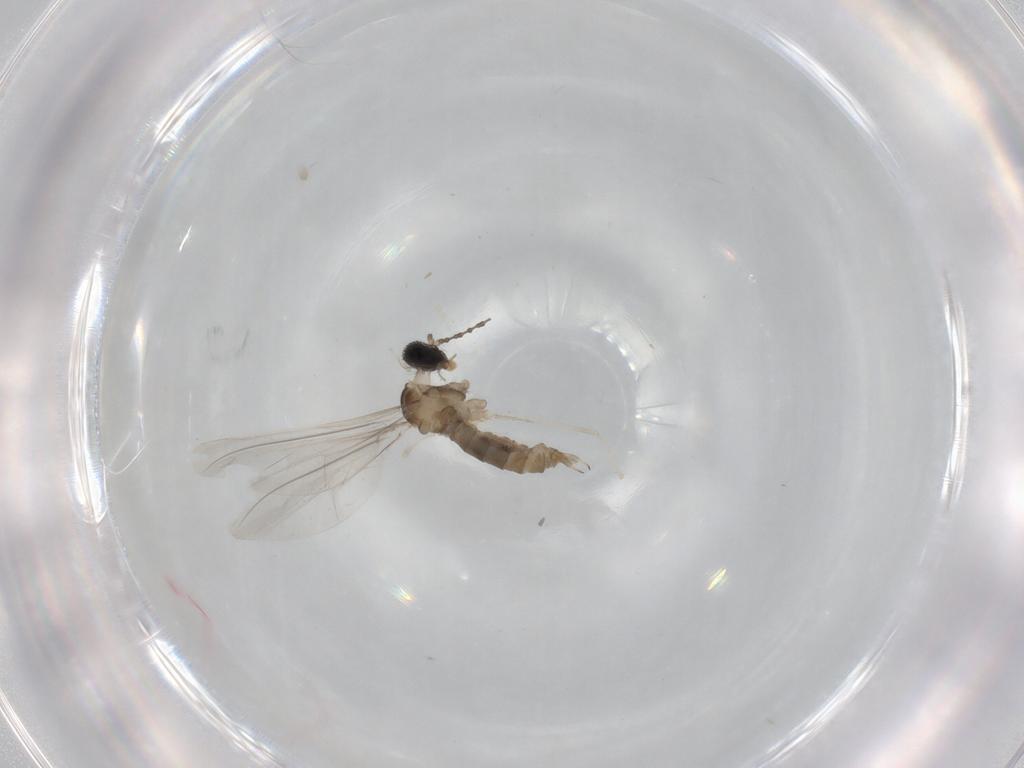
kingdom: Animalia
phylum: Arthropoda
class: Insecta
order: Diptera
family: Cecidomyiidae
